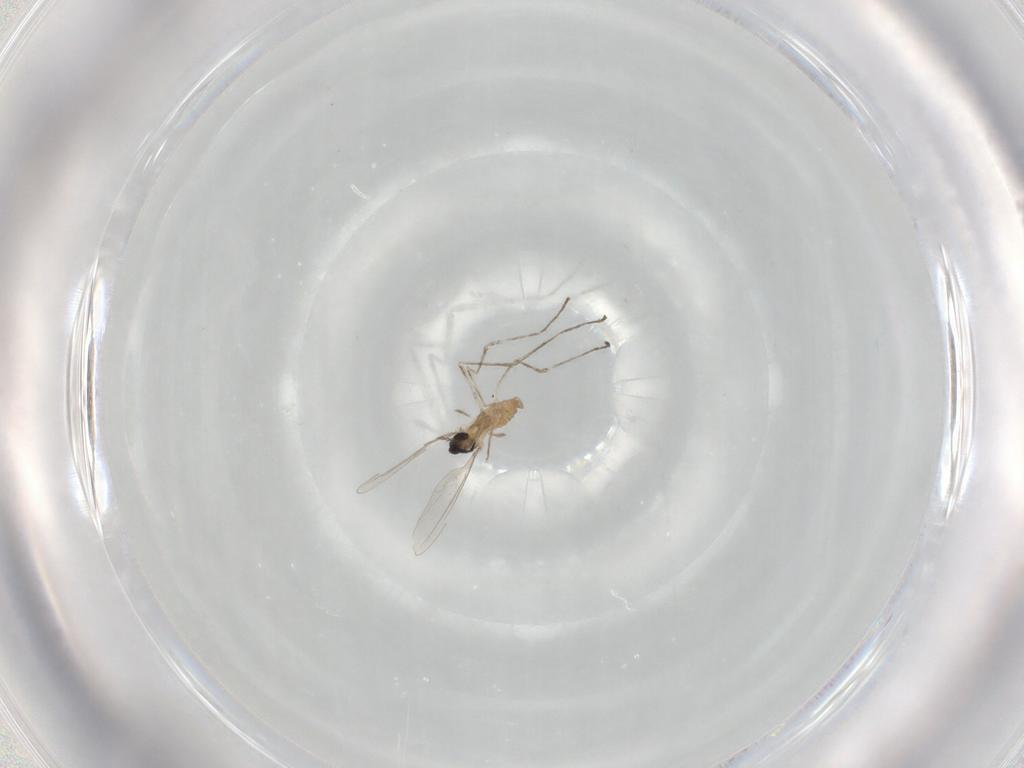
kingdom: Animalia
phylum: Arthropoda
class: Insecta
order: Diptera
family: Cecidomyiidae
